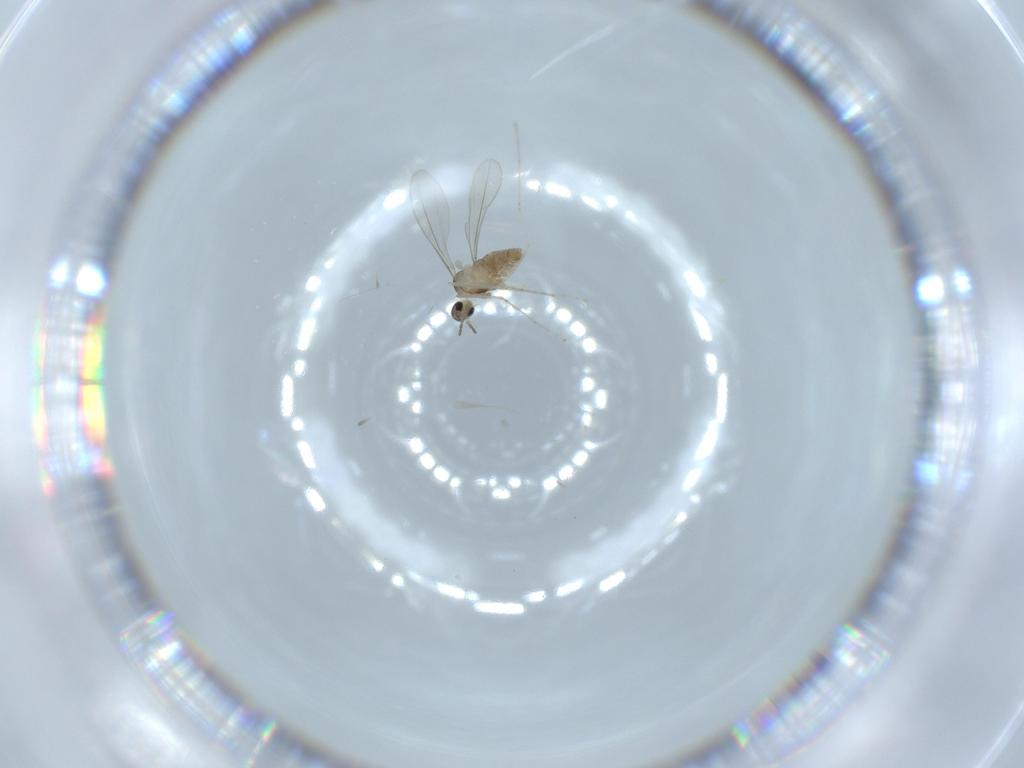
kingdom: Animalia
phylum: Arthropoda
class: Insecta
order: Diptera
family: Cecidomyiidae
